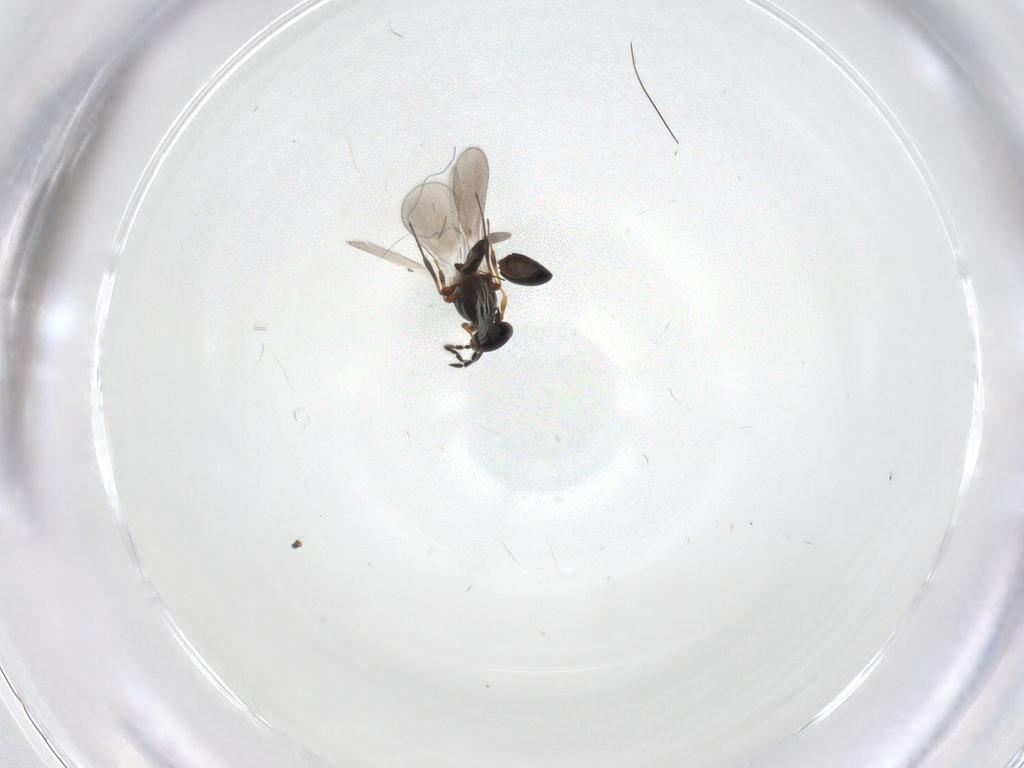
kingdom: Animalia
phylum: Arthropoda
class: Insecta
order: Hymenoptera
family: Platygastridae
